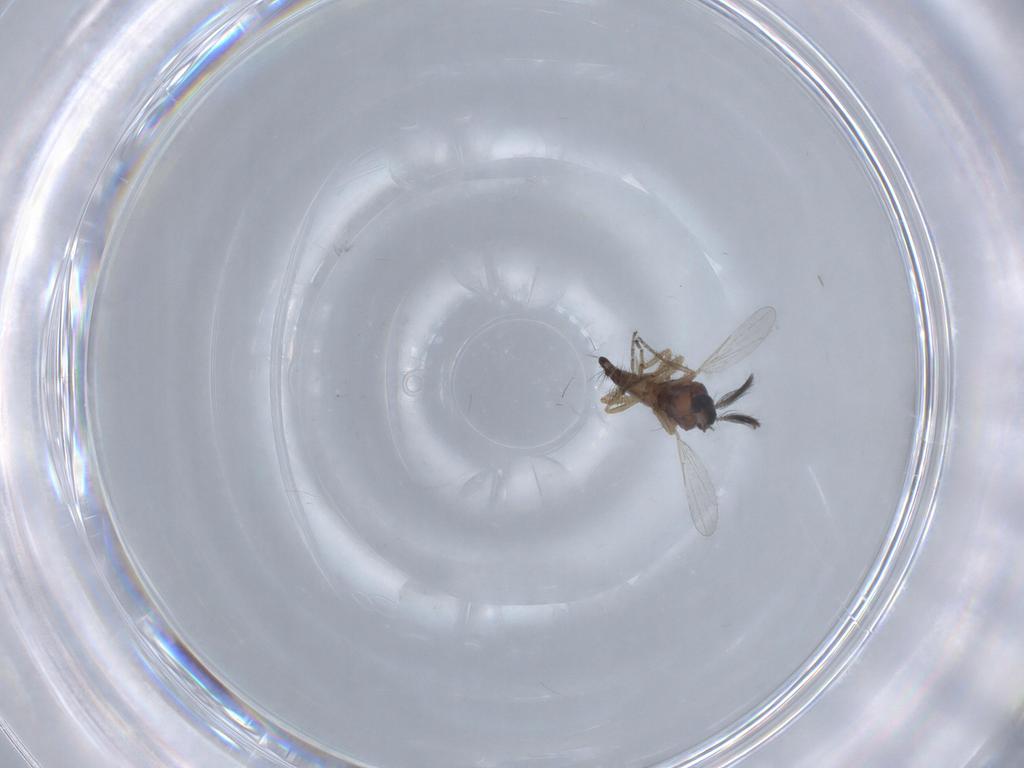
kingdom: Animalia
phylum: Arthropoda
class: Insecta
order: Diptera
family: Ceratopogonidae
